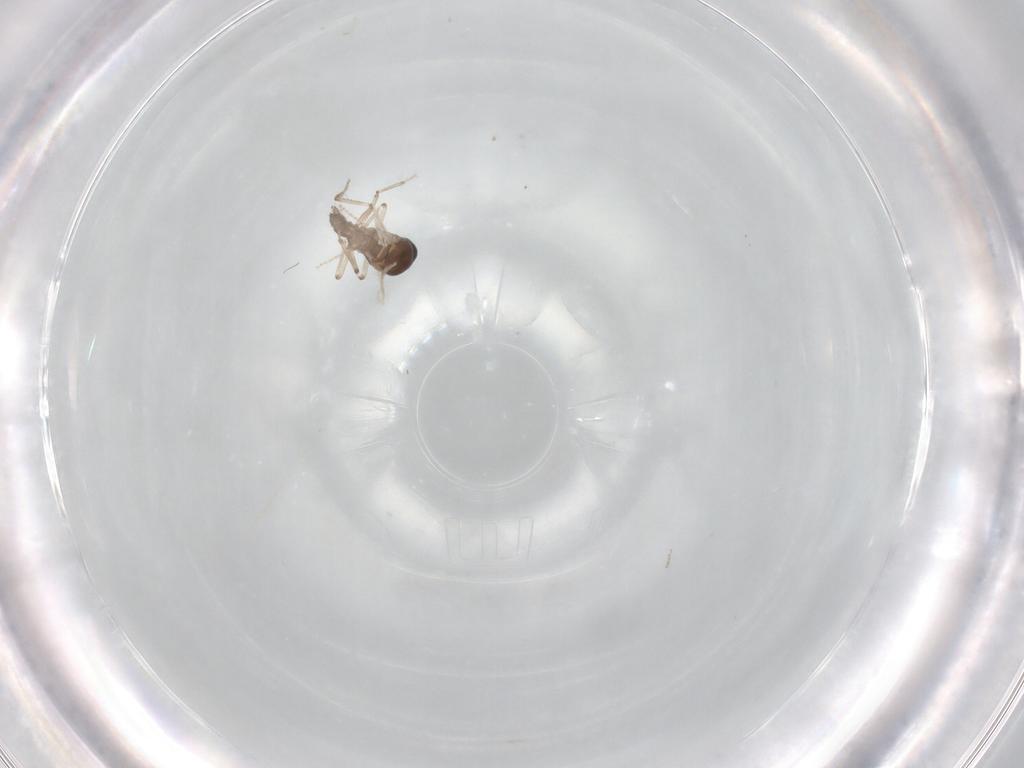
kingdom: Animalia
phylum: Arthropoda
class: Insecta
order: Diptera
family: Ceratopogonidae
